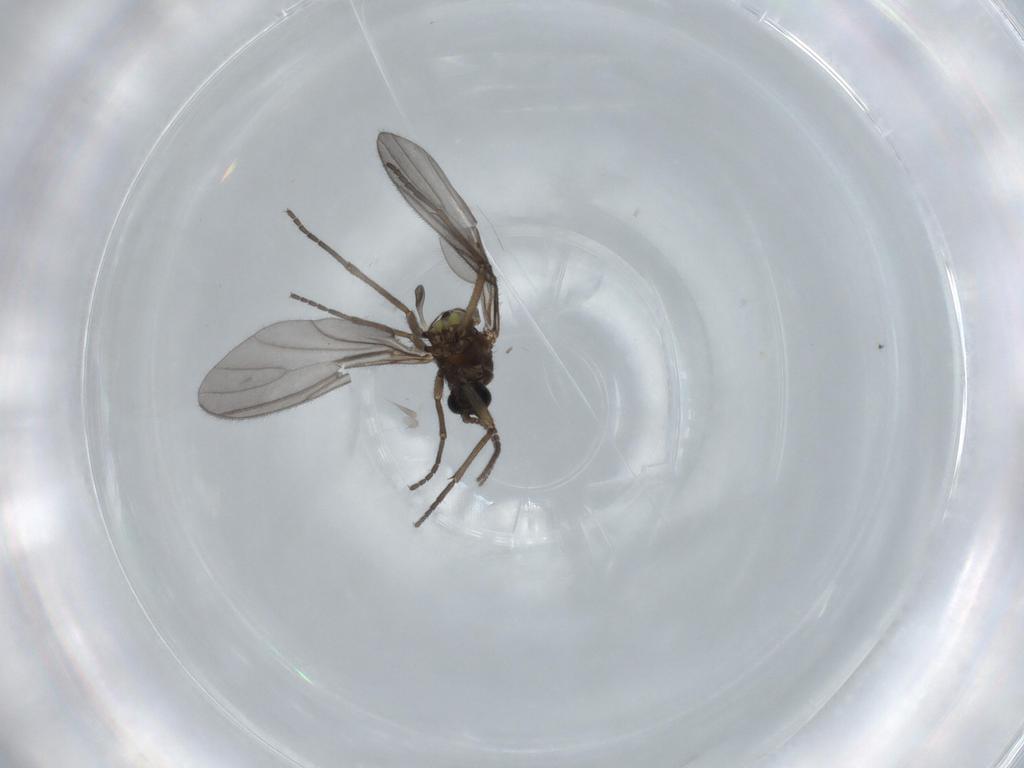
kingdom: Animalia
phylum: Arthropoda
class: Insecta
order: Diptera
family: Sciaridae
